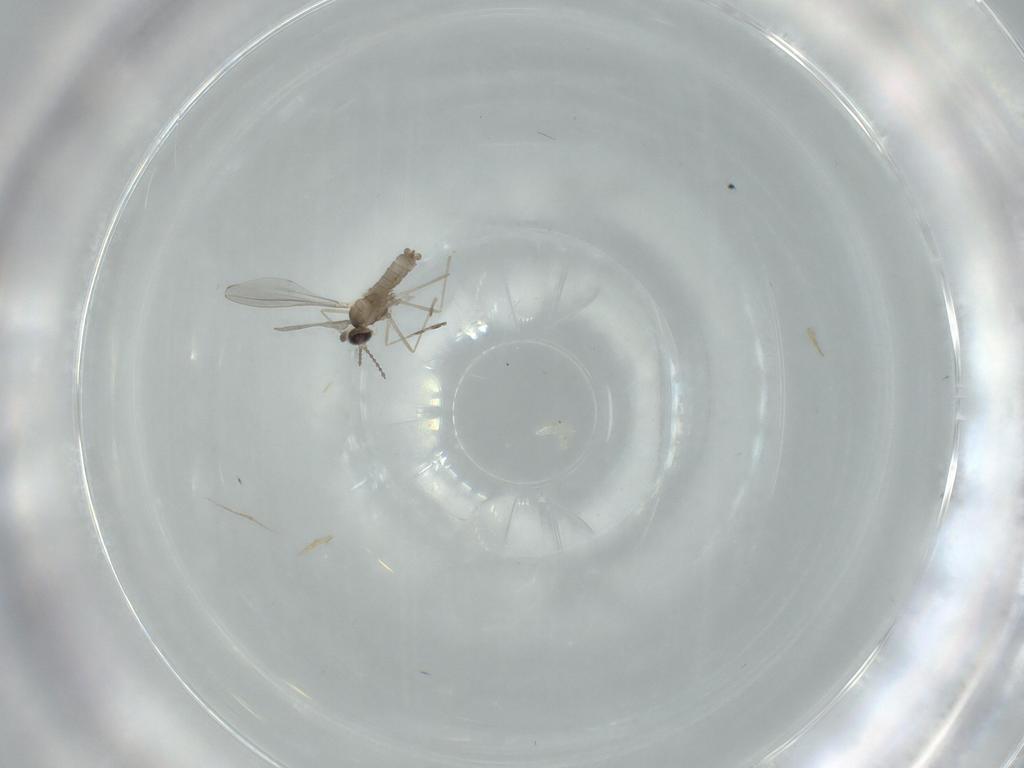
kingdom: Animalia
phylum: Arthropoda
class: Insecta
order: Diptera
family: Cecidomyiidae
